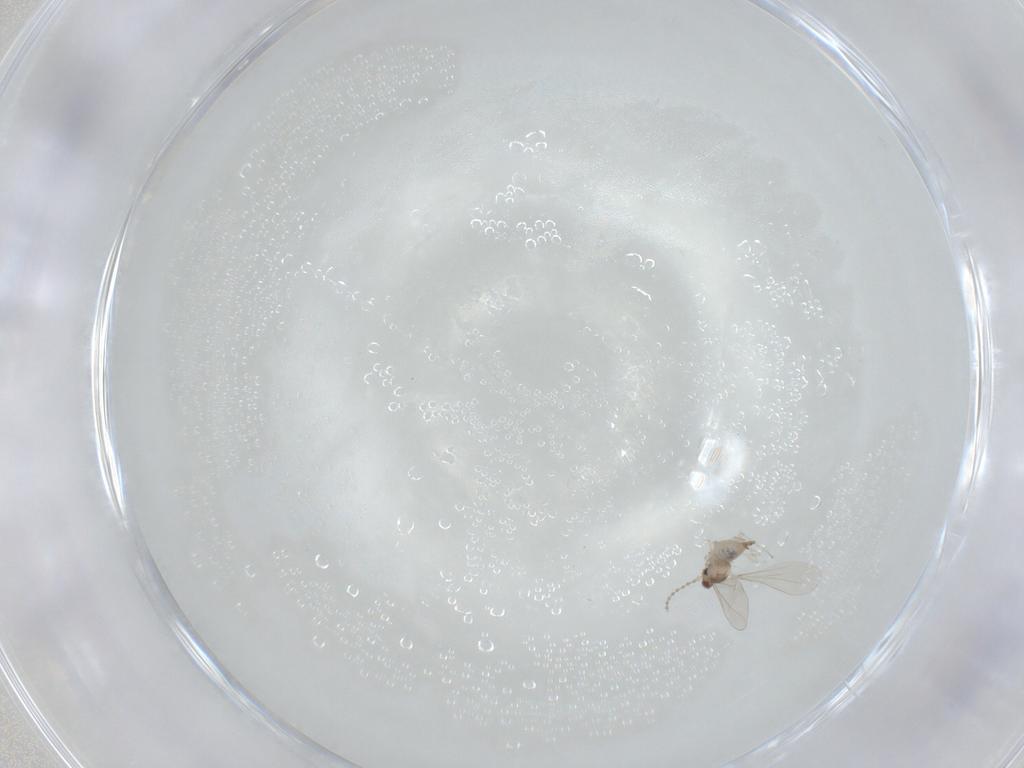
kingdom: Animalia
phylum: Arthropoda
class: Insecta
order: Diptera
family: Cecidomyiidae
